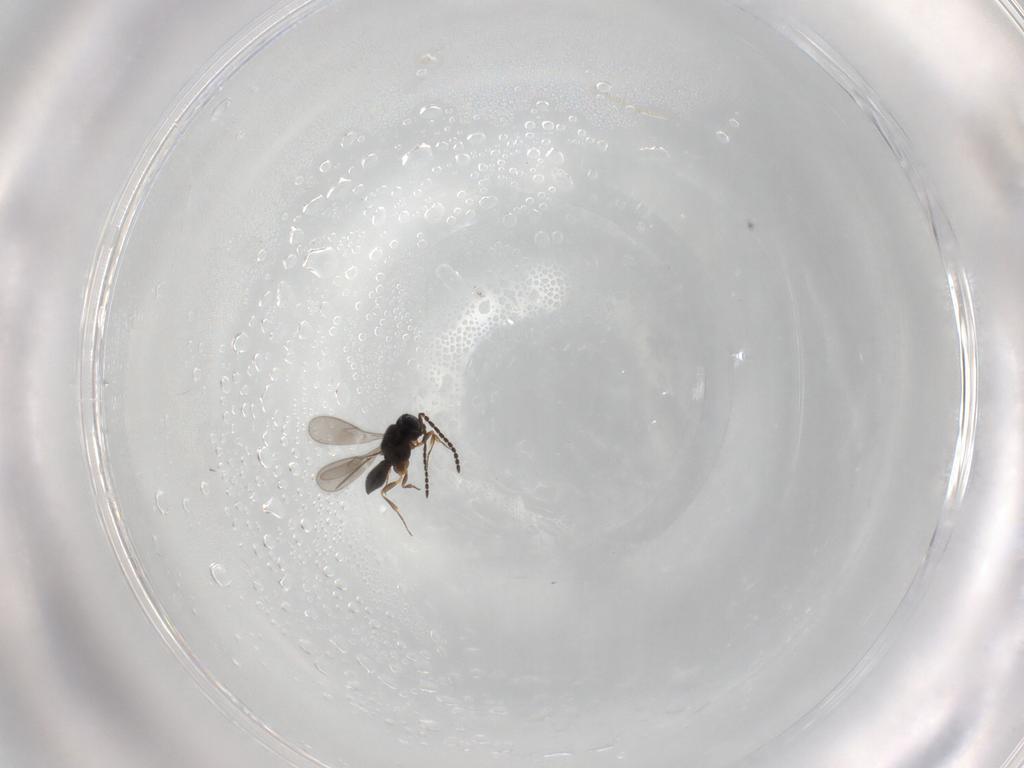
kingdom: Animalia
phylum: Arthropoda
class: Insecta
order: Hymenoptera
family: Scelionidae
